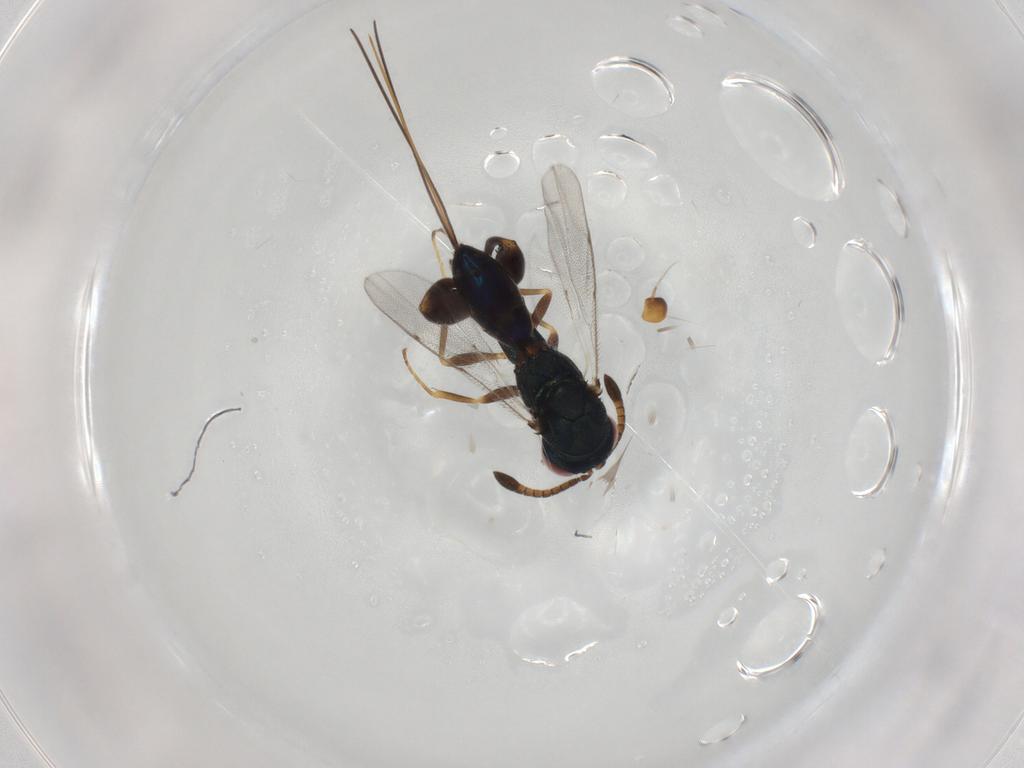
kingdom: Animalia
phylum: Arthropoda
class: Insecta
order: Hymenoptera
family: Torymidae
